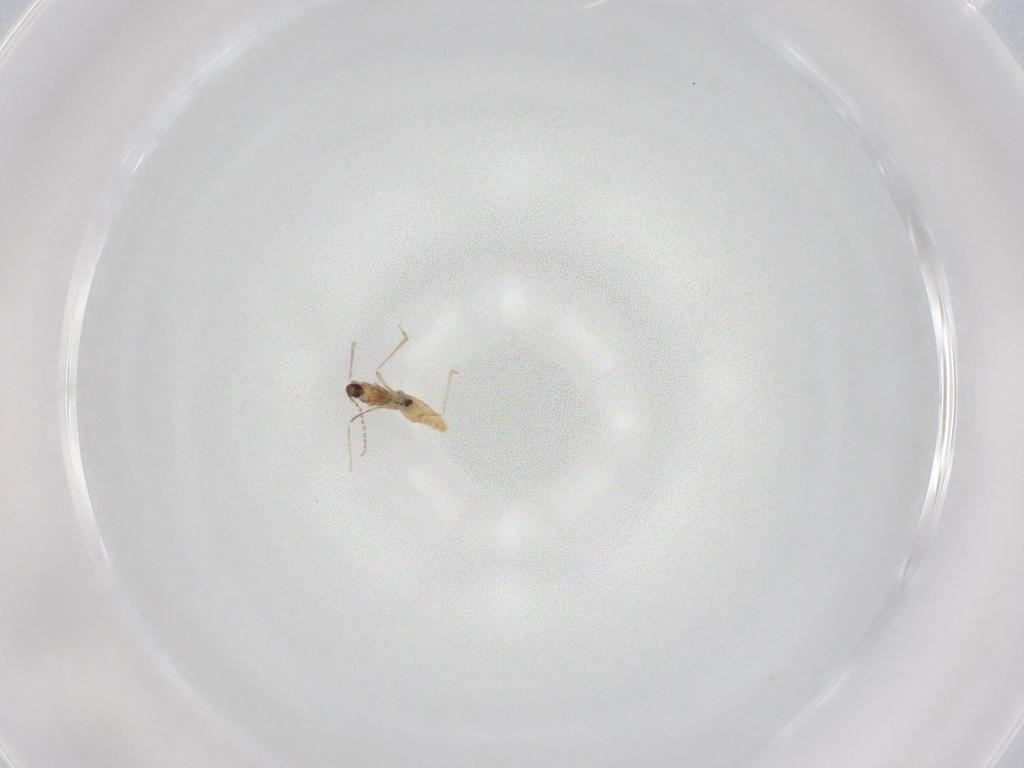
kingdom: Animalia
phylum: Arthropoda
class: Insecta
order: Diptera
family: Cecidomyiidae
